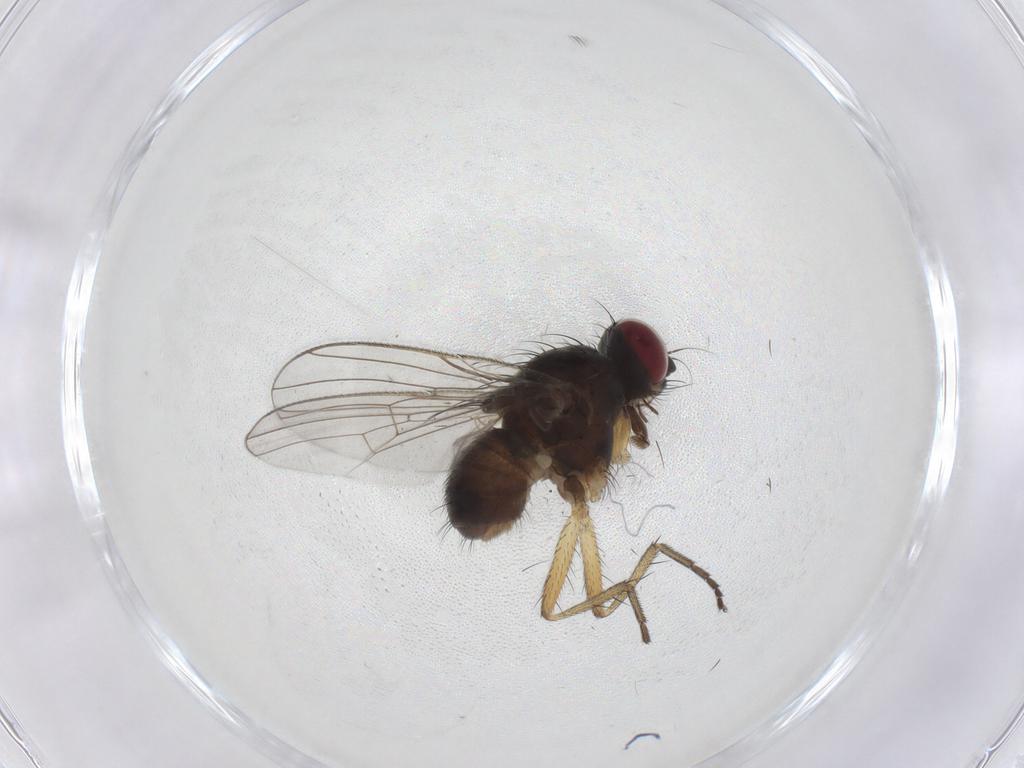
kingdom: Animalia
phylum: Arthropoda
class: Insecta
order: Diptera
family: Muscidae
